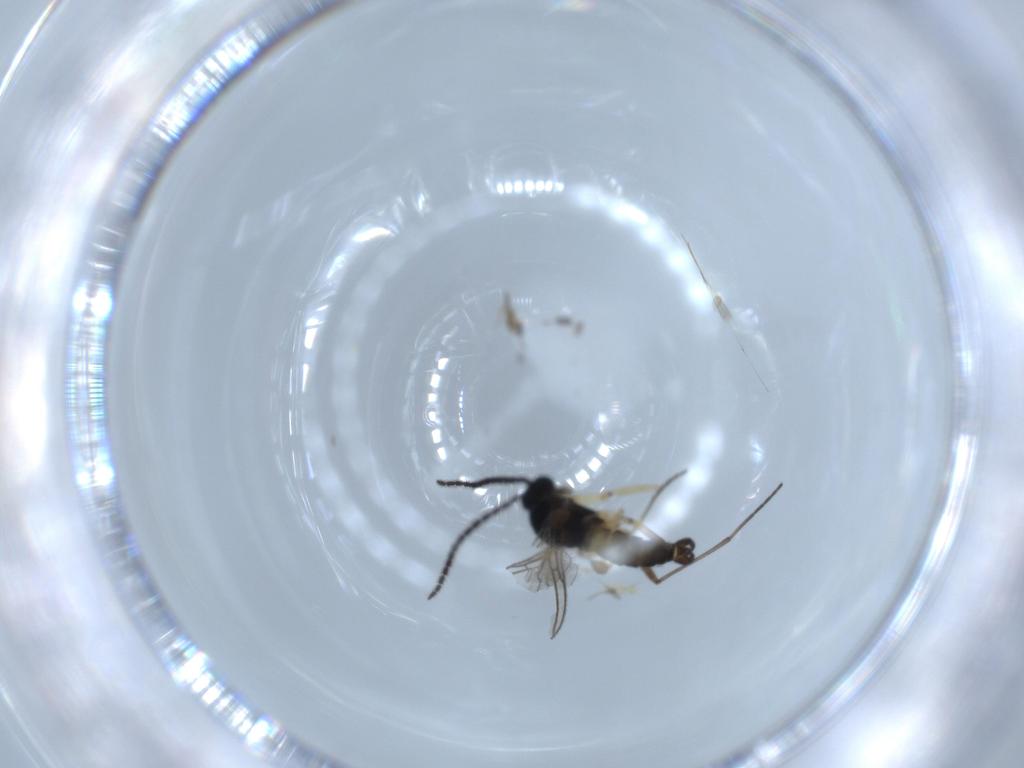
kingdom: Animalia
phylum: Arthropoda
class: Insecta
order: Diptera
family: Sciaridae
